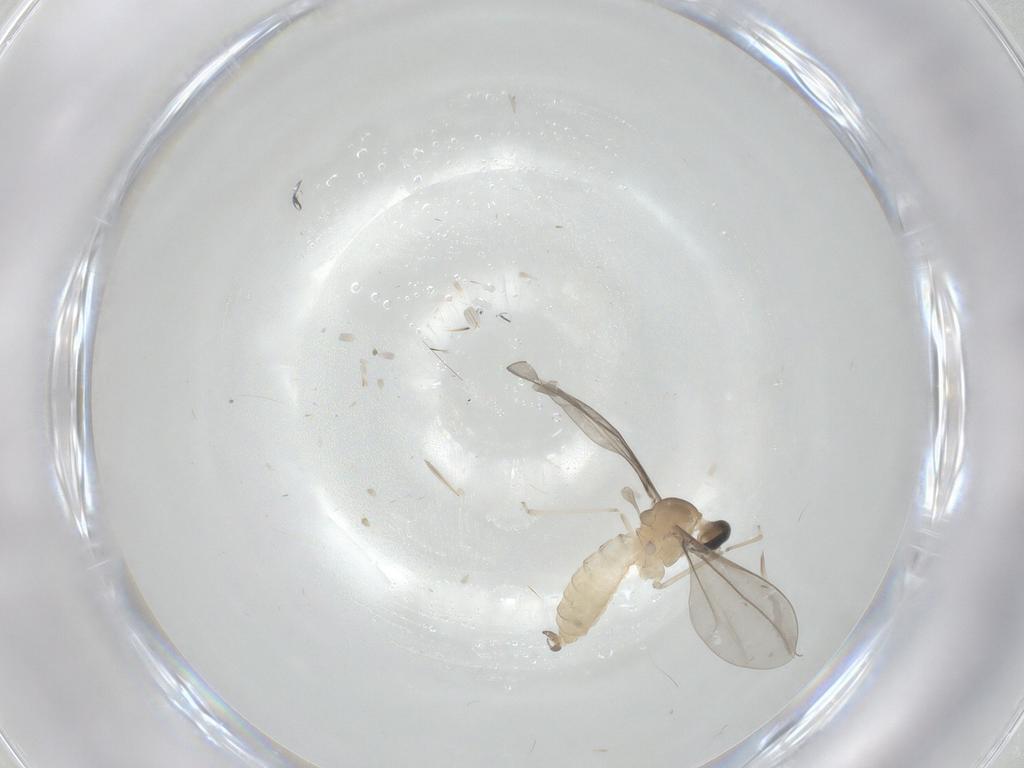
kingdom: Animalia
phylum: Arthropoda
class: Insecta
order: Diptera
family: Cecidomyiidae
